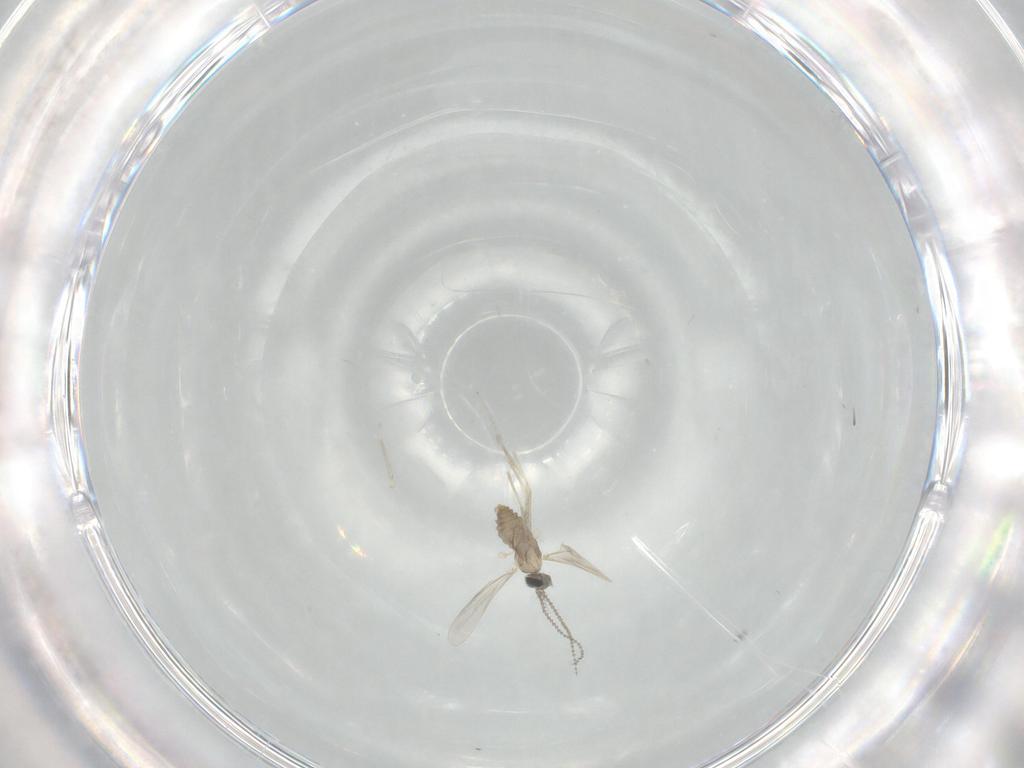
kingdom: Animalia
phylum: Arthropoda
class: Insecta
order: Diptera
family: Cecidomyiidae
